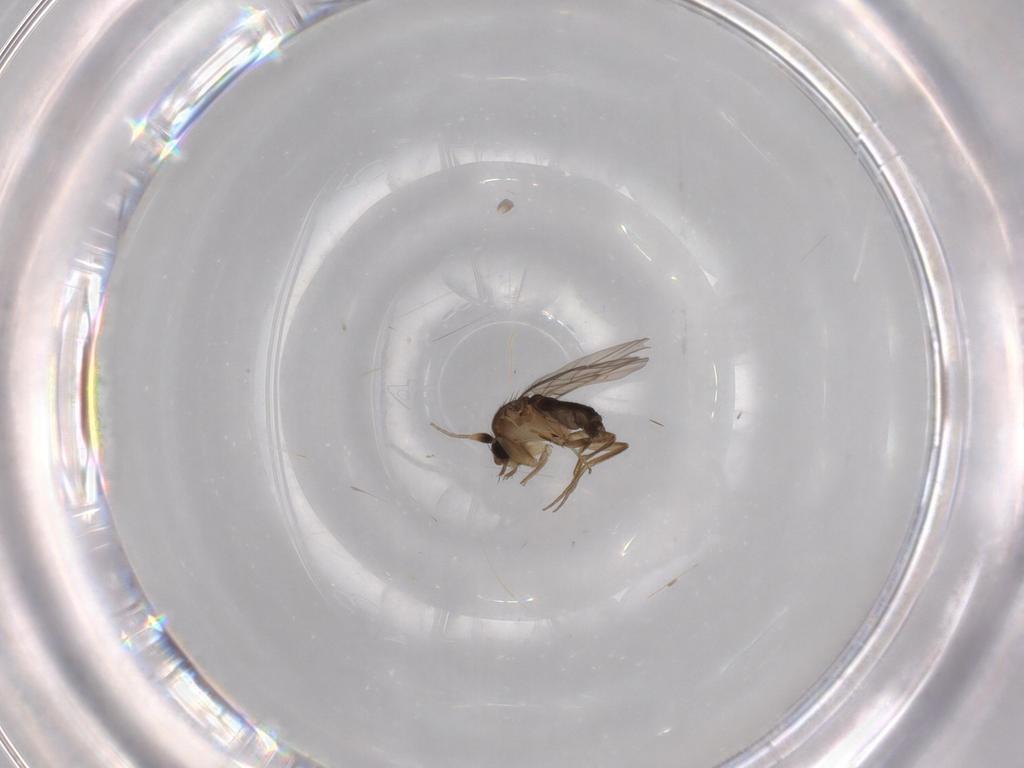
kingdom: Animalia
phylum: Arthropoda
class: Insecta
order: Diptera
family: Phoridae
